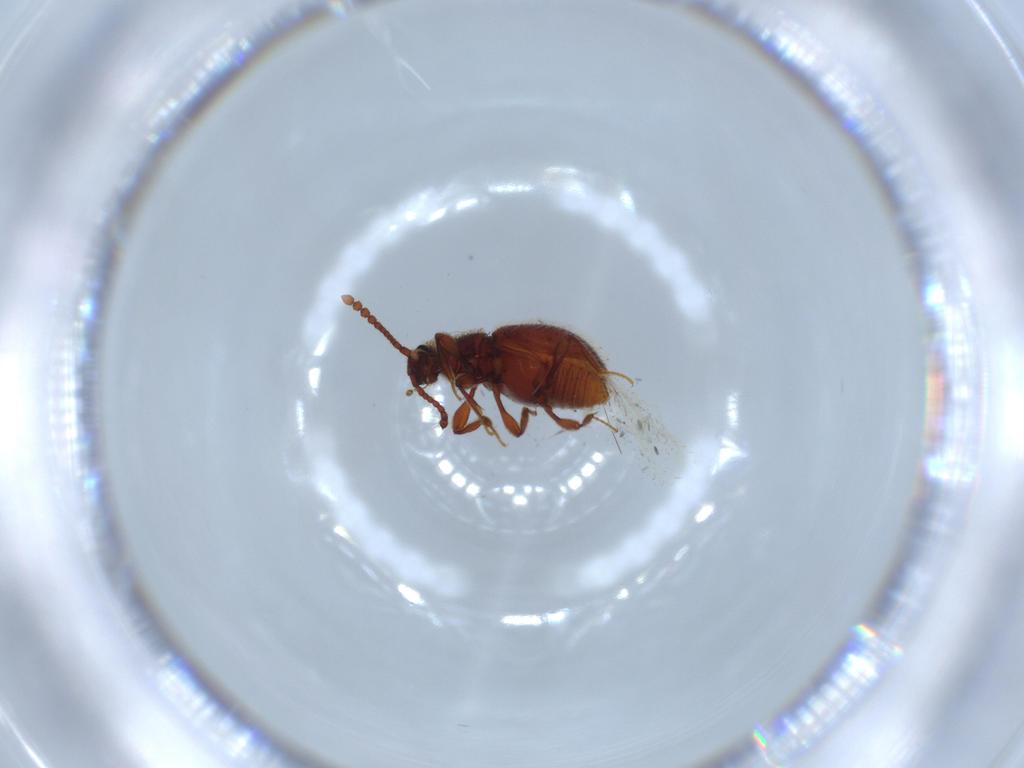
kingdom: Animalia
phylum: Arthropoda
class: Insecta
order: Coleoptera
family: Staphylinidae
